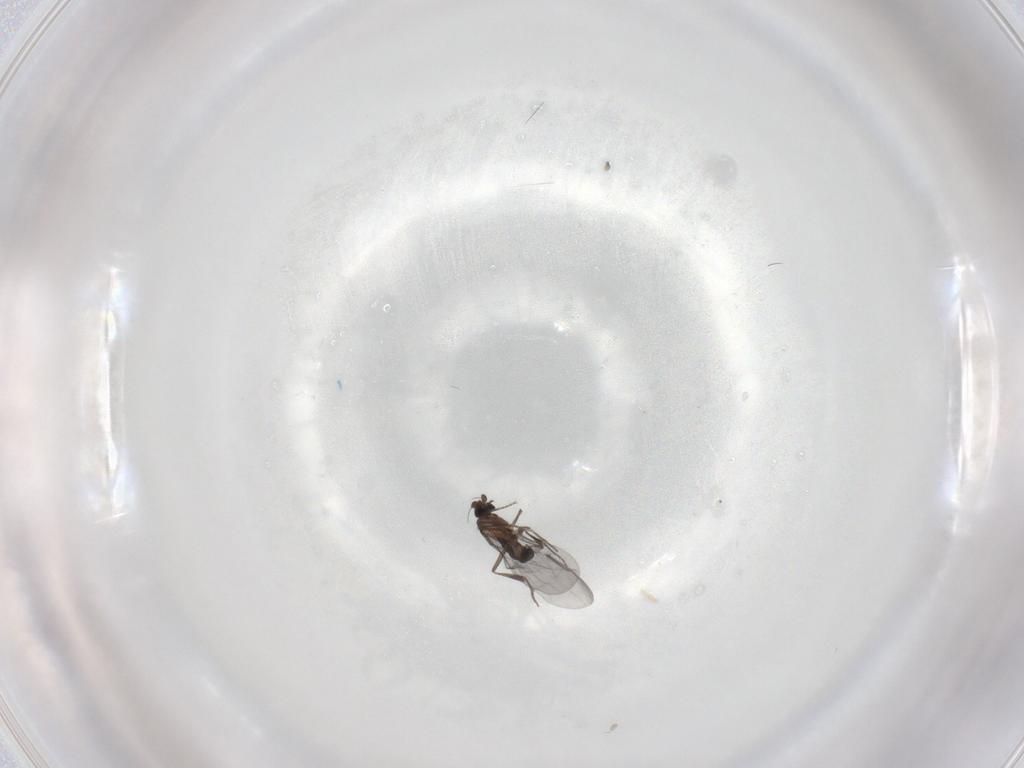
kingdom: Animalia
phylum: Arthropoda
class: Insecta
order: Diptera
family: Phoridae
